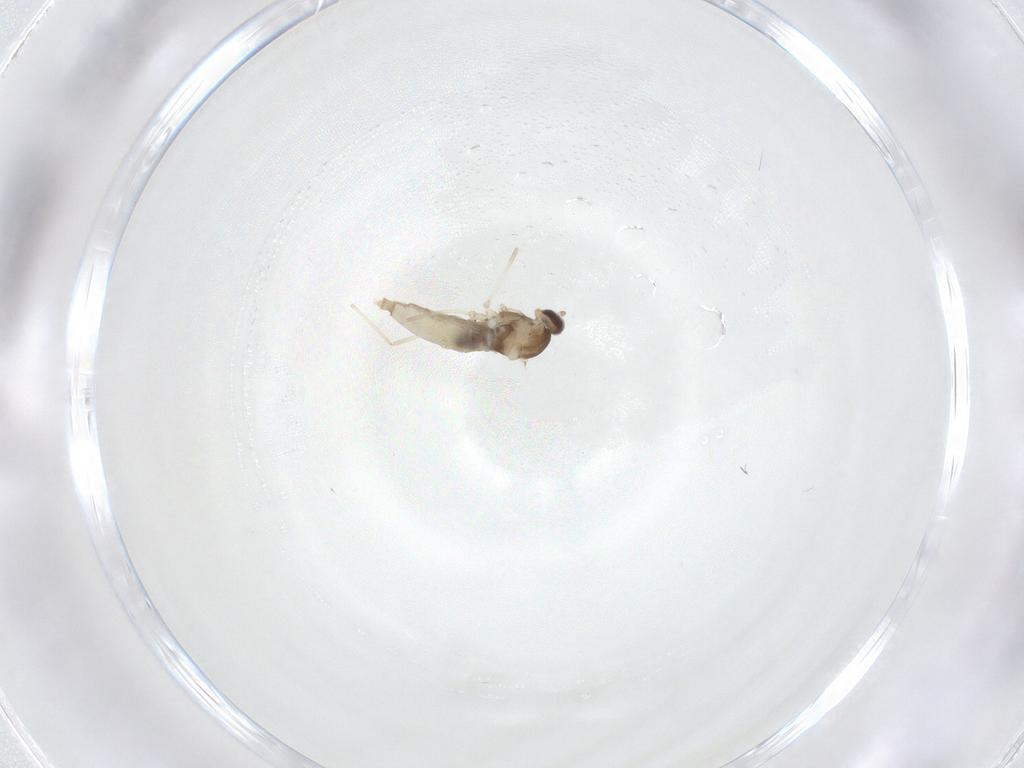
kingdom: Animalia
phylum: Arthropoda
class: Insecta
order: Diptera
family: Cecidomyiidae
